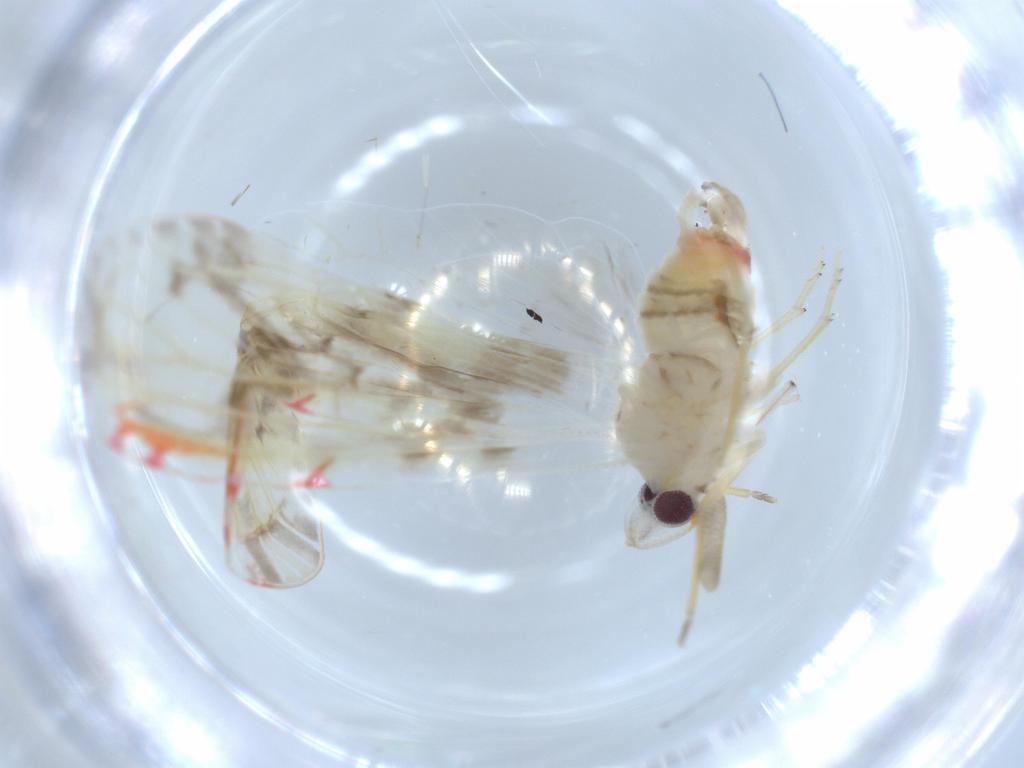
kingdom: Animalia
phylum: Arthropoda
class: Insecta
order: Hemiptera
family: Derbidae
